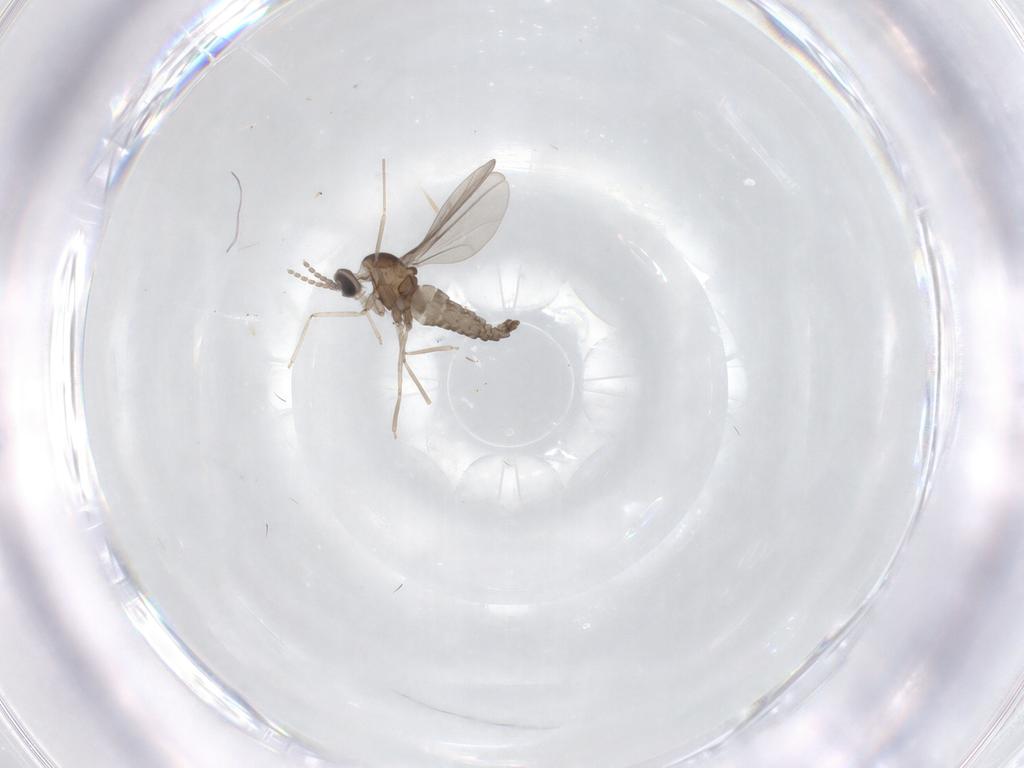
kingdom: Animalia
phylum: Arthropoda
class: Insecta
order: Diptera
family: Cecidomyiidae
